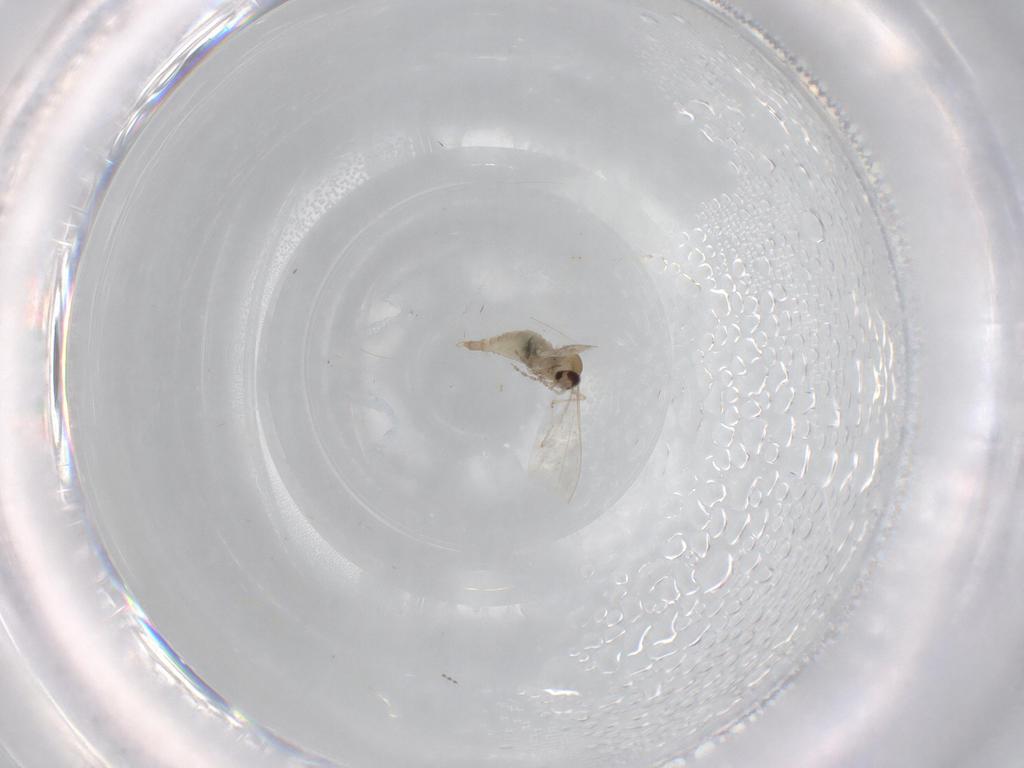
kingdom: Animalia
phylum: Arthropoda
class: Insecta
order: Diptera
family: Cecidomyiidae
